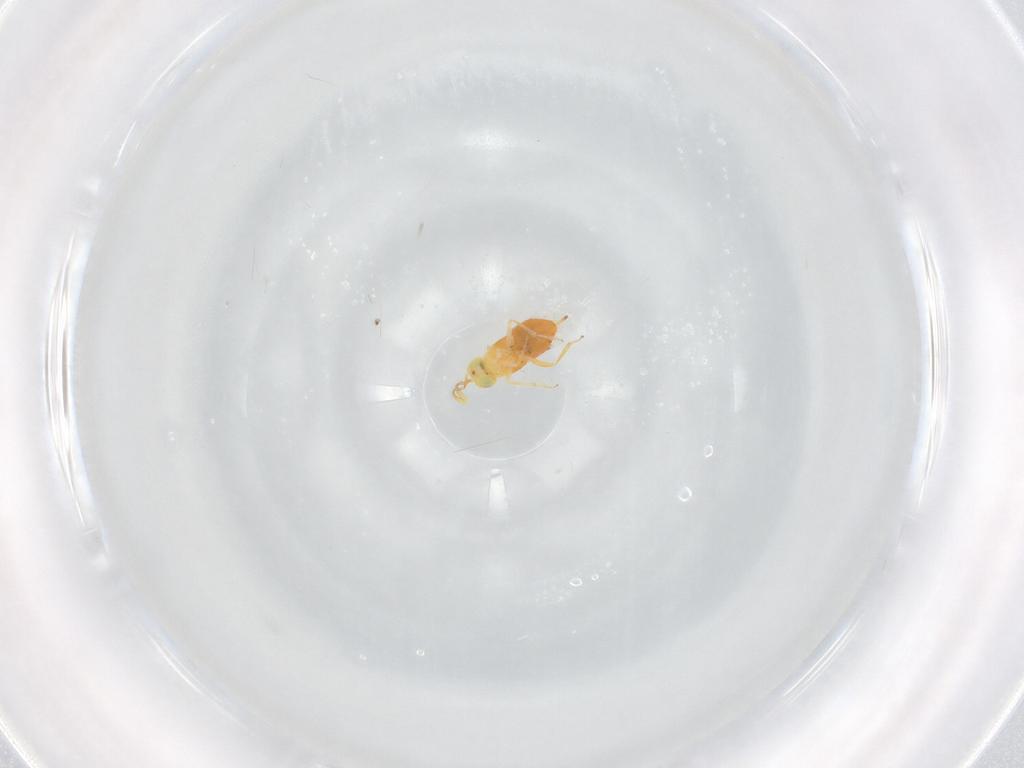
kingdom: Animalia
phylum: Arthropoda
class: Insecta
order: Hymenoptera
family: Encyrtidae
